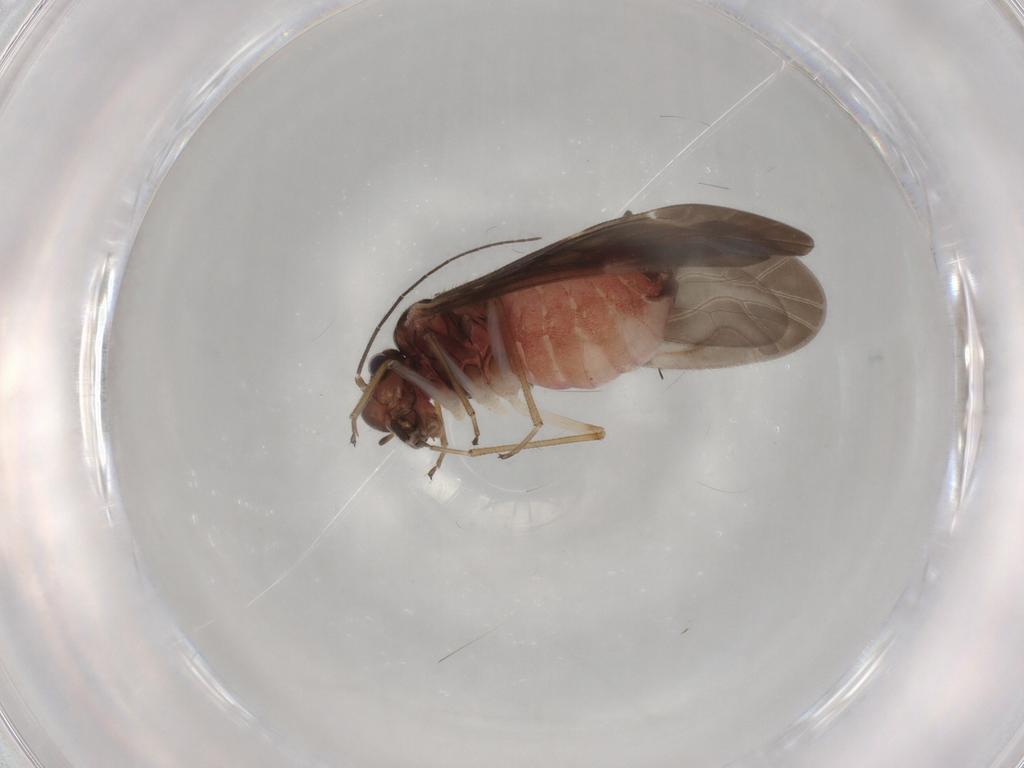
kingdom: Animalia
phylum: Arthropoda
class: Insecta
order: Psocodea
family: Caeciliusidae
